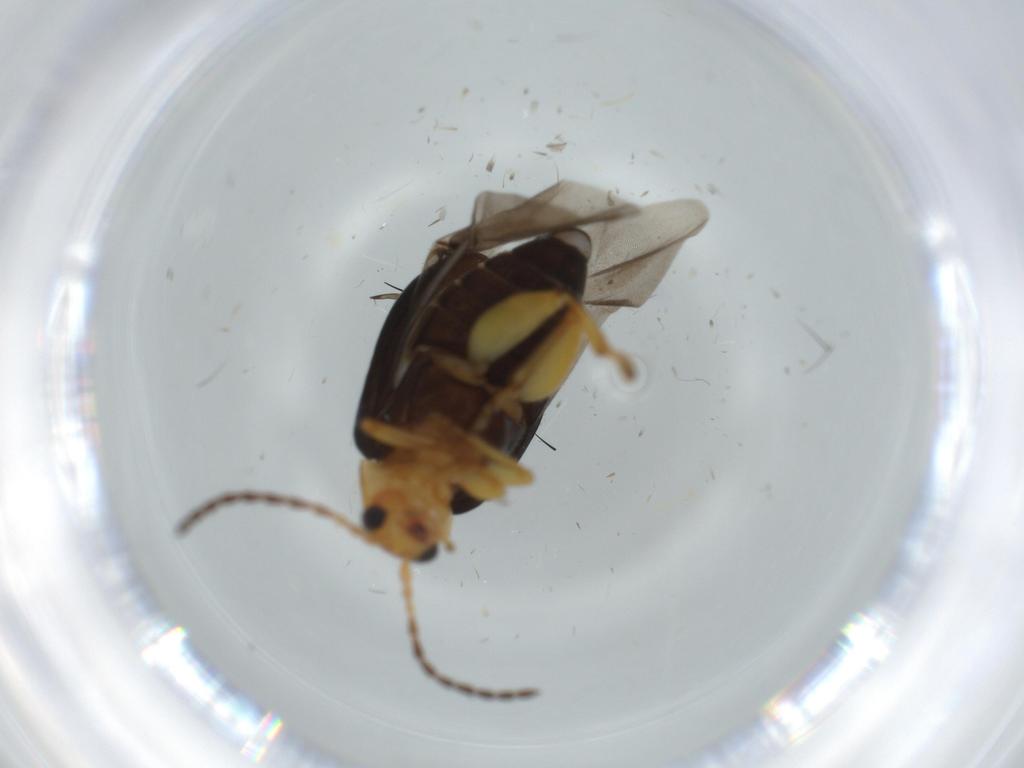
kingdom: Animalia
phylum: Arthropoda
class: Insecta
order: Coleoptera
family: Chrysomelidae
